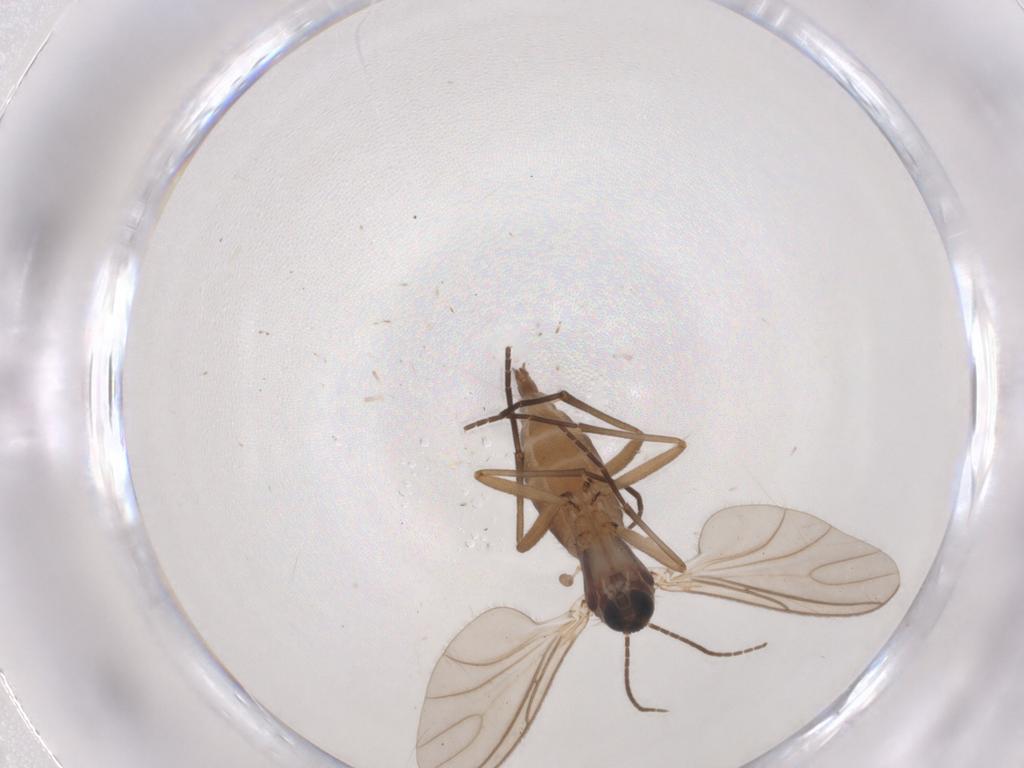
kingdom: Animalia
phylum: Arthropoda
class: Insecta
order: Diptera
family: Sciaridae
